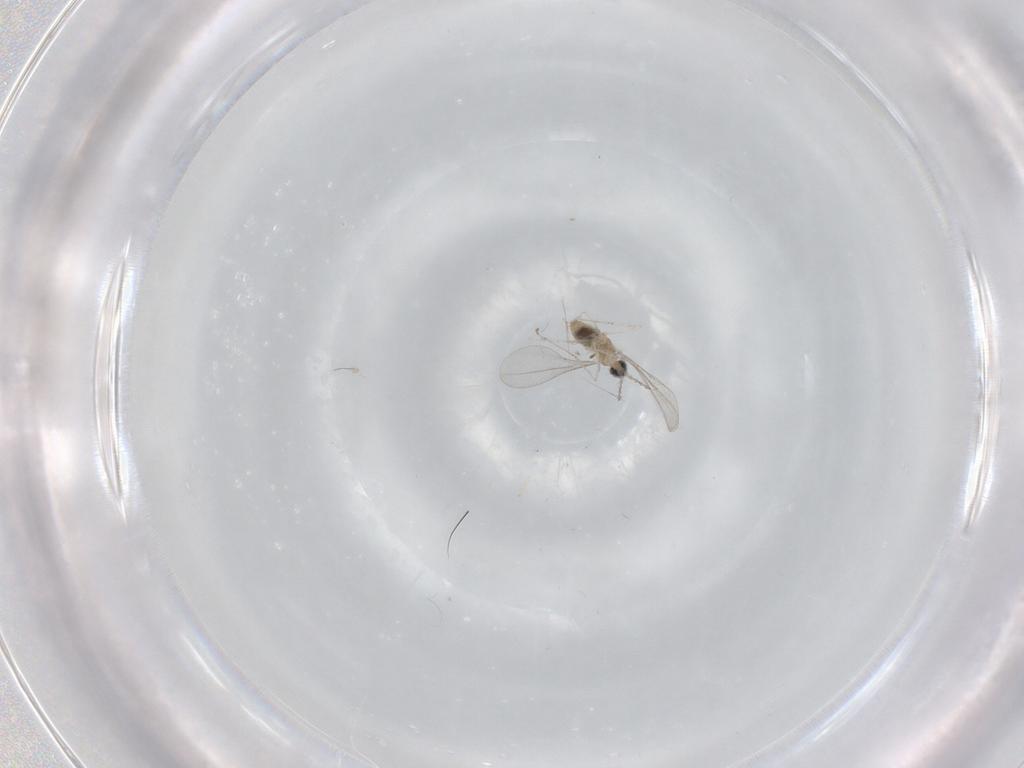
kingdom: Animalia
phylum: Arthropoda
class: Insecta
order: Diptera
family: Cecidomyiidae
